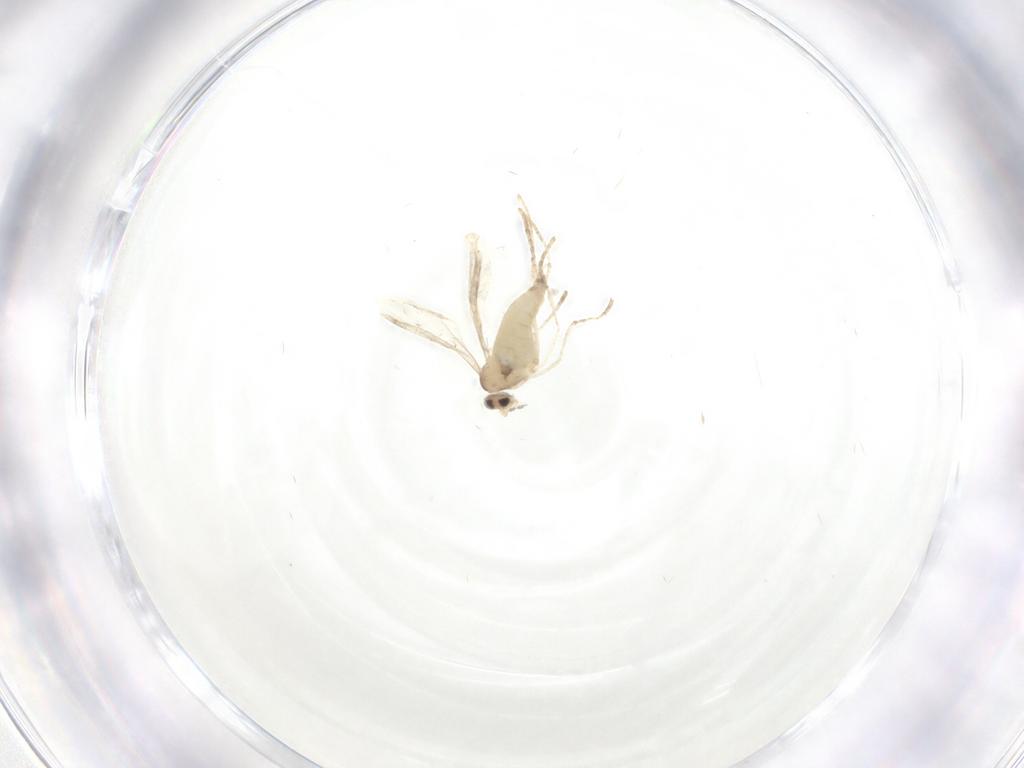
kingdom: Animalia
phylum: Arthropoda
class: Insecta
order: Diptera
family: Cecidomyiidae
